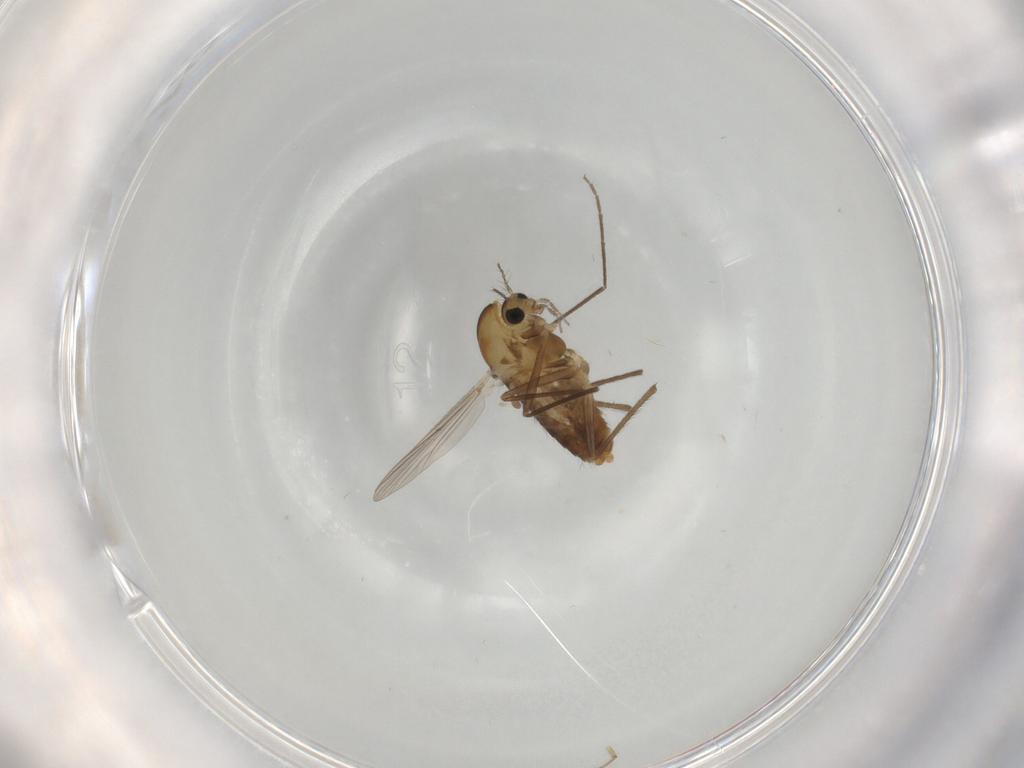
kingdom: Animalia
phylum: Arthropoda
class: Insecta
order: Diptera
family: Chironomidae
